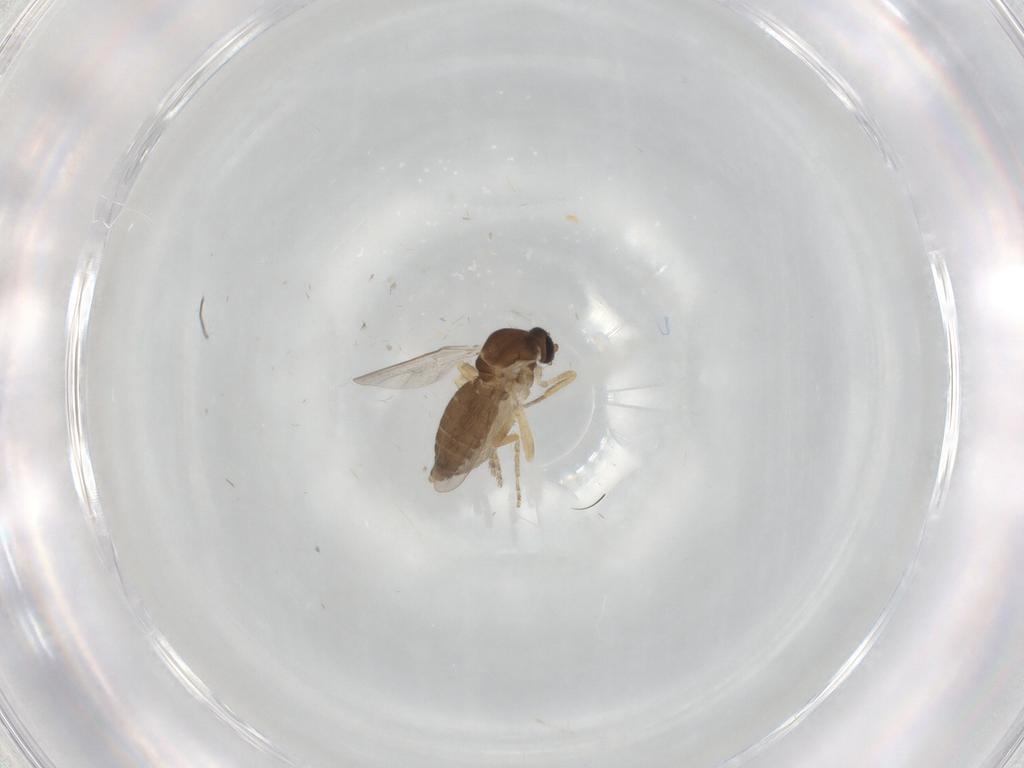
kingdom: Animalia
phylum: Arthropoda
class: Insecta
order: Diptera
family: Ceratopogonidae
